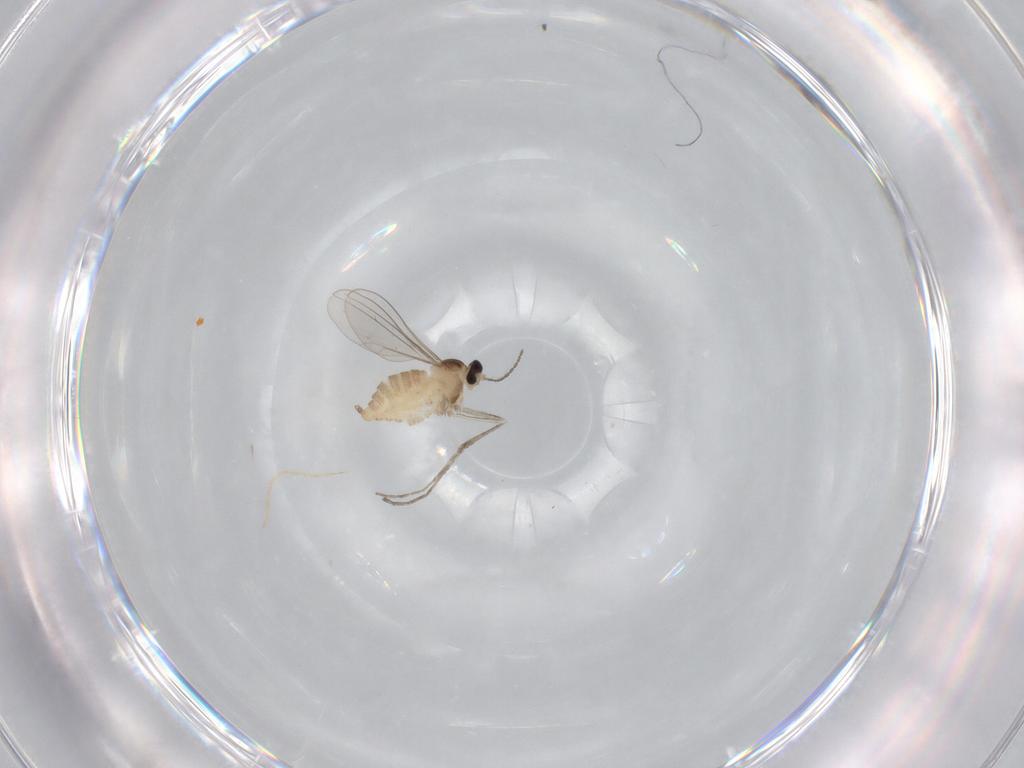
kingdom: Animalia
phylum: Arthropoda
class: Insecta
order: Diptera
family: Cecidomyiidae
